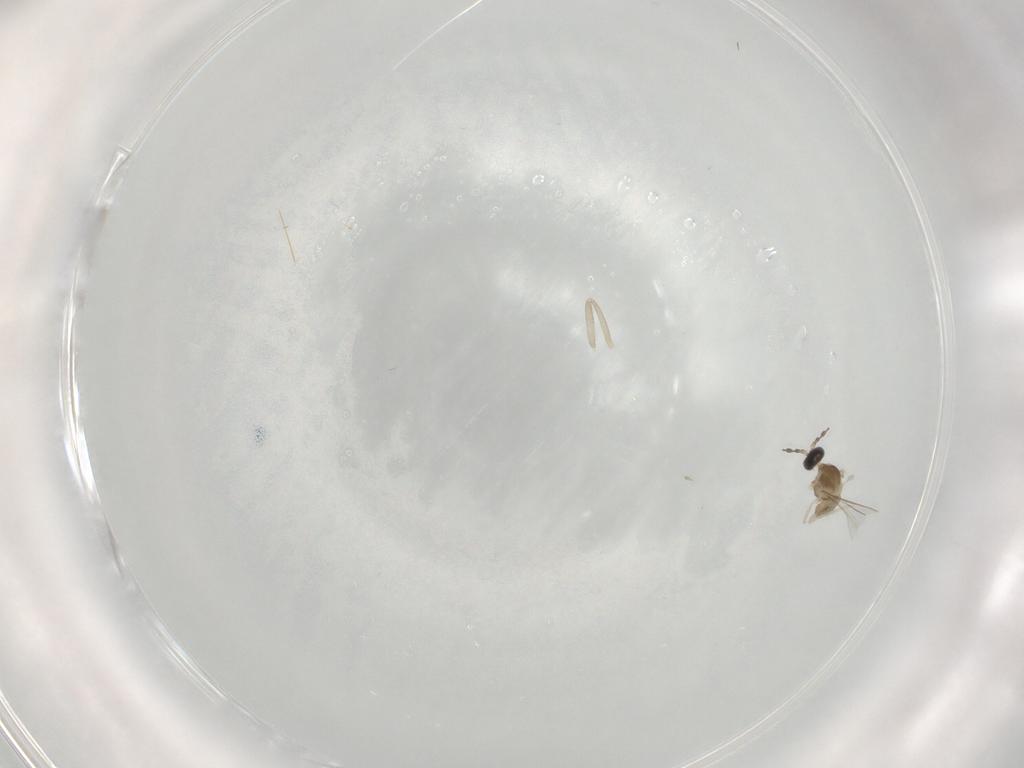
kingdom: Animalia
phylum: Arthropoda
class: Insecta
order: Diptera
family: Cecidomyiidae
